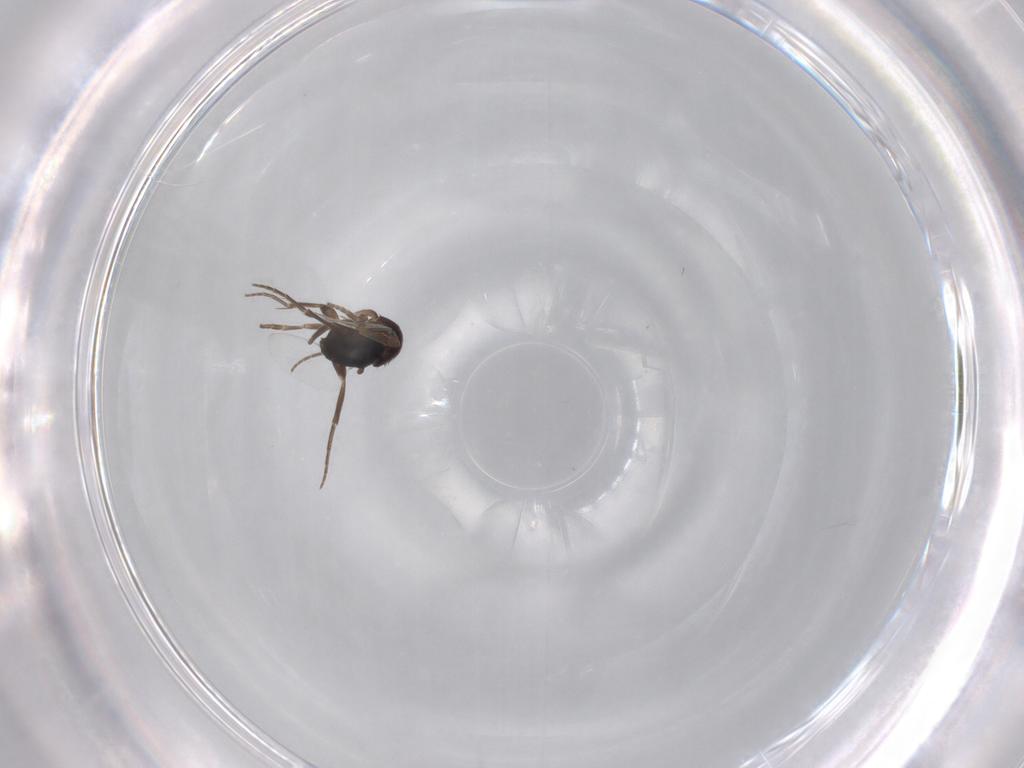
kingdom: Animalia
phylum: Arthropoda
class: Insecta
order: Diptera
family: Phoridae
